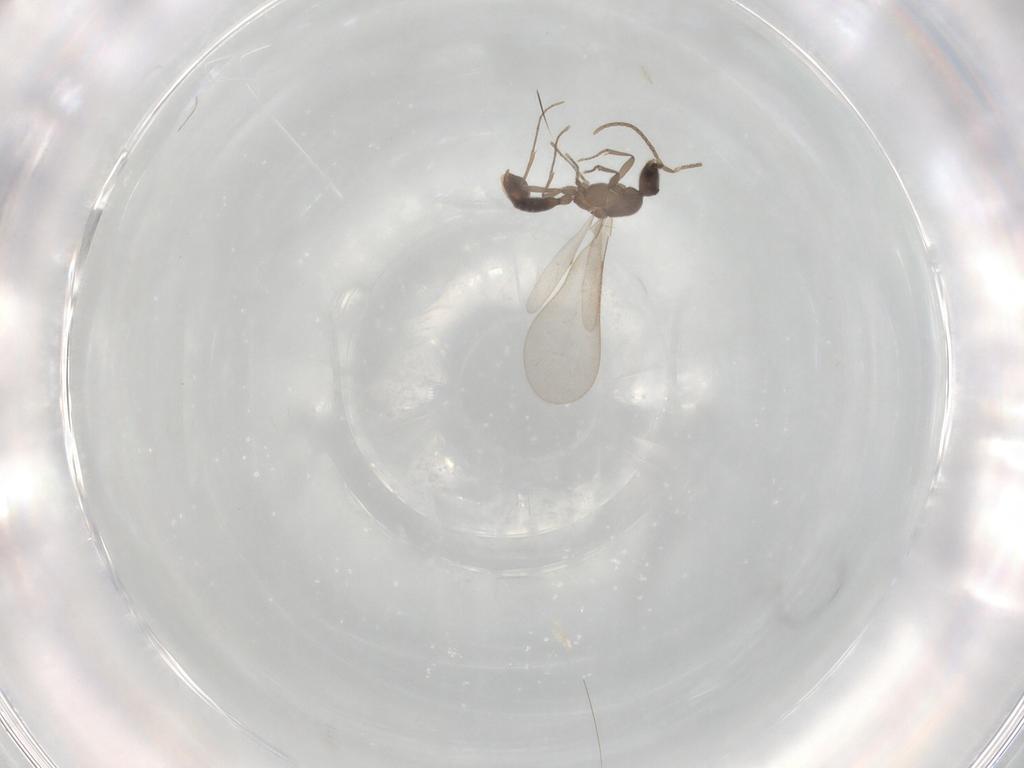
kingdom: Animalia
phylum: Arthropoda
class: Insecta
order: Hymenoptera
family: Formicidae
